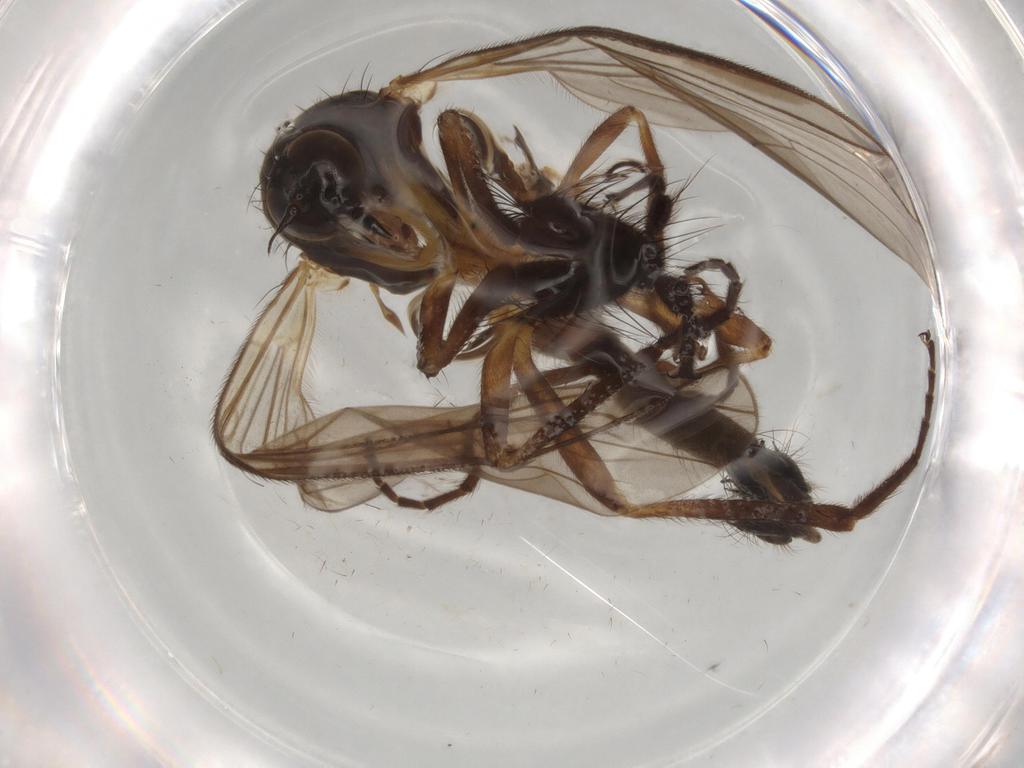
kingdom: Animalia
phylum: Arthropoda
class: Insecta
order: Diptera
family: Empididae
